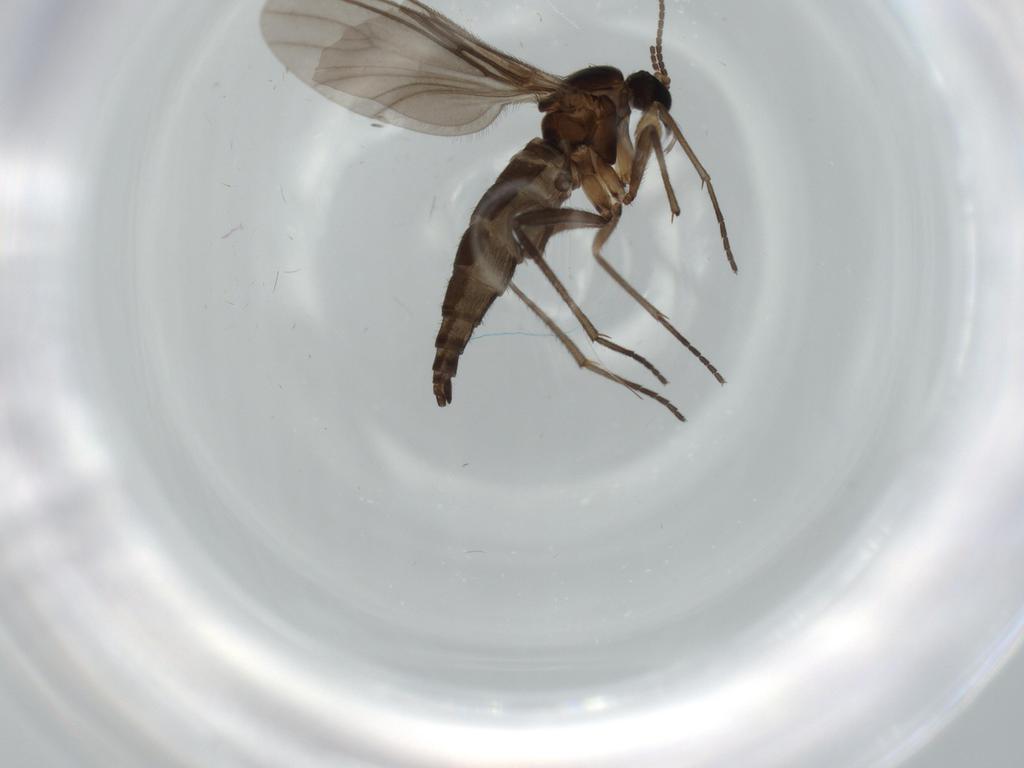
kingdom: Animalia
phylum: Arthropoda
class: Insecta
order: Diptera
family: Sciaridae
